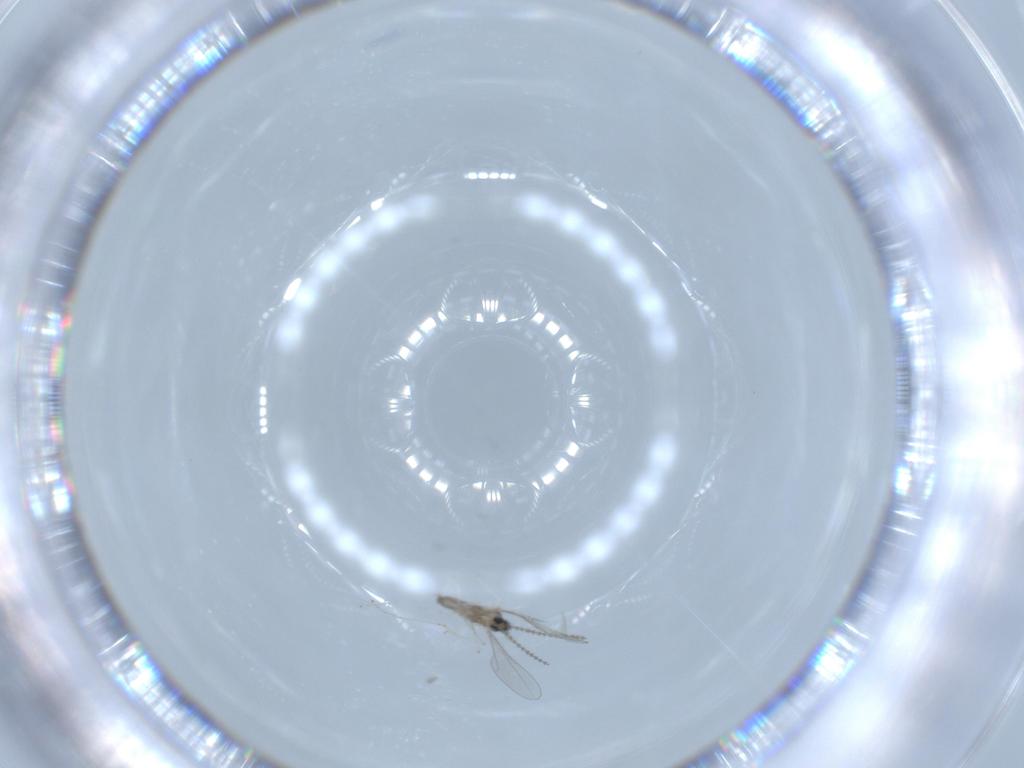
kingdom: Animalia
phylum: Arthropoda
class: Insecta
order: Diptera
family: Cecidomyiidae
